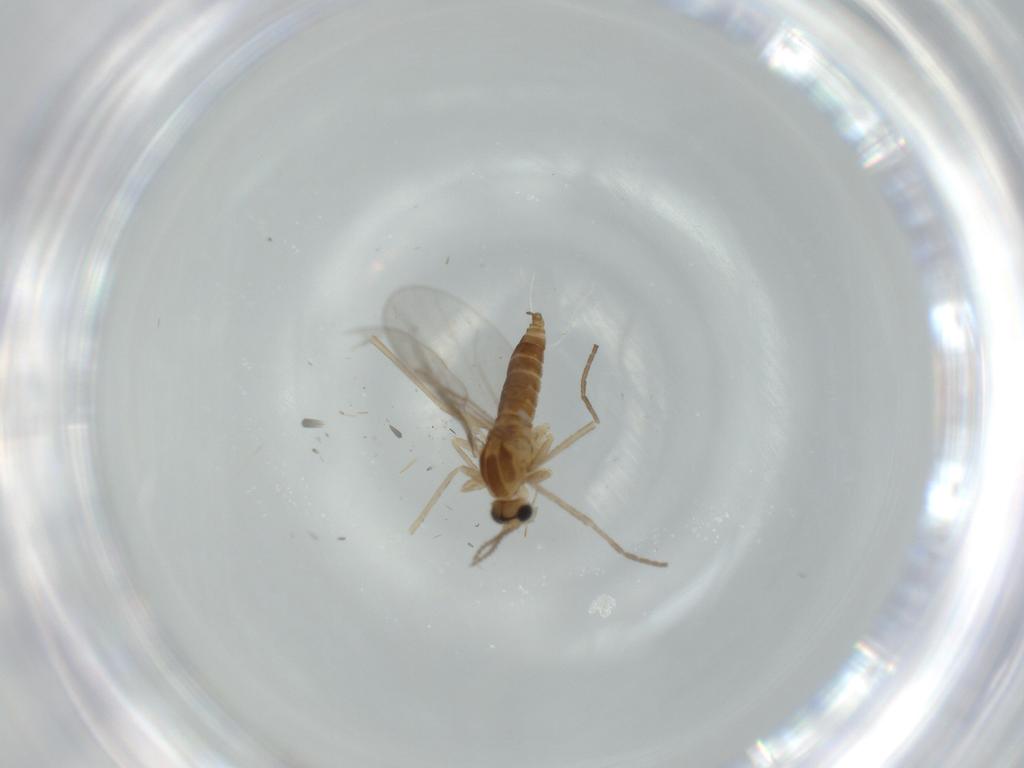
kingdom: Animalia
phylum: Arthropoda
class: Insecta
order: Diptera
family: Cecidomyiidae
